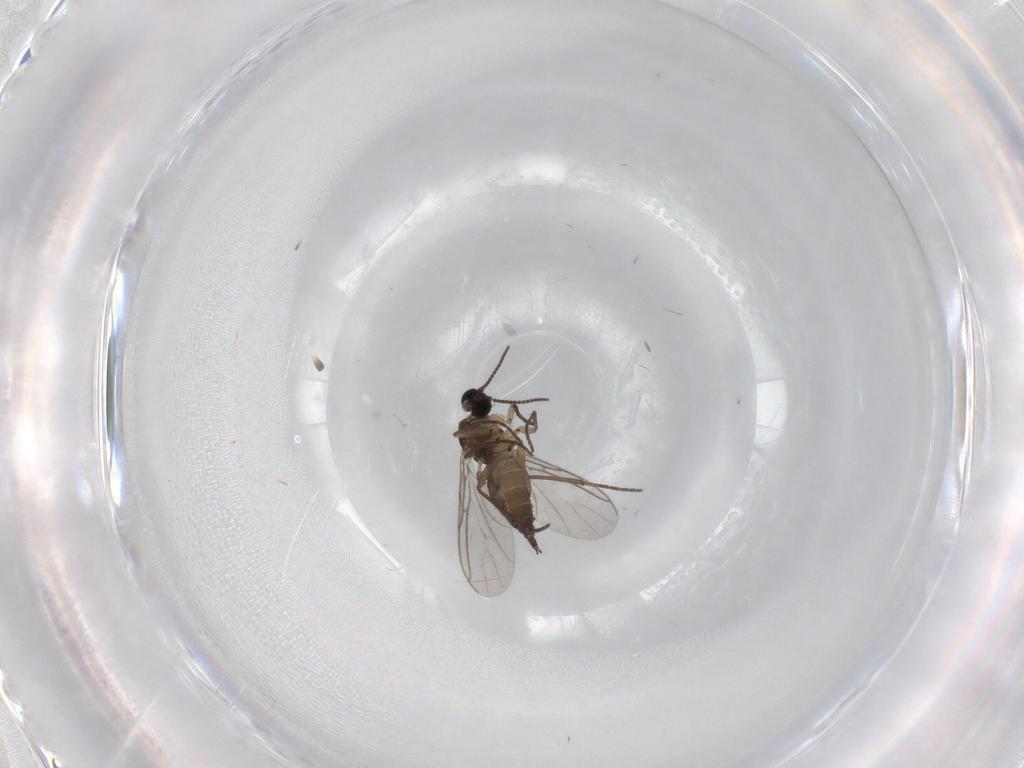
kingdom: Animalia
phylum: Arthropoda
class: Insecta
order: Diptera
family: Sciaridae
